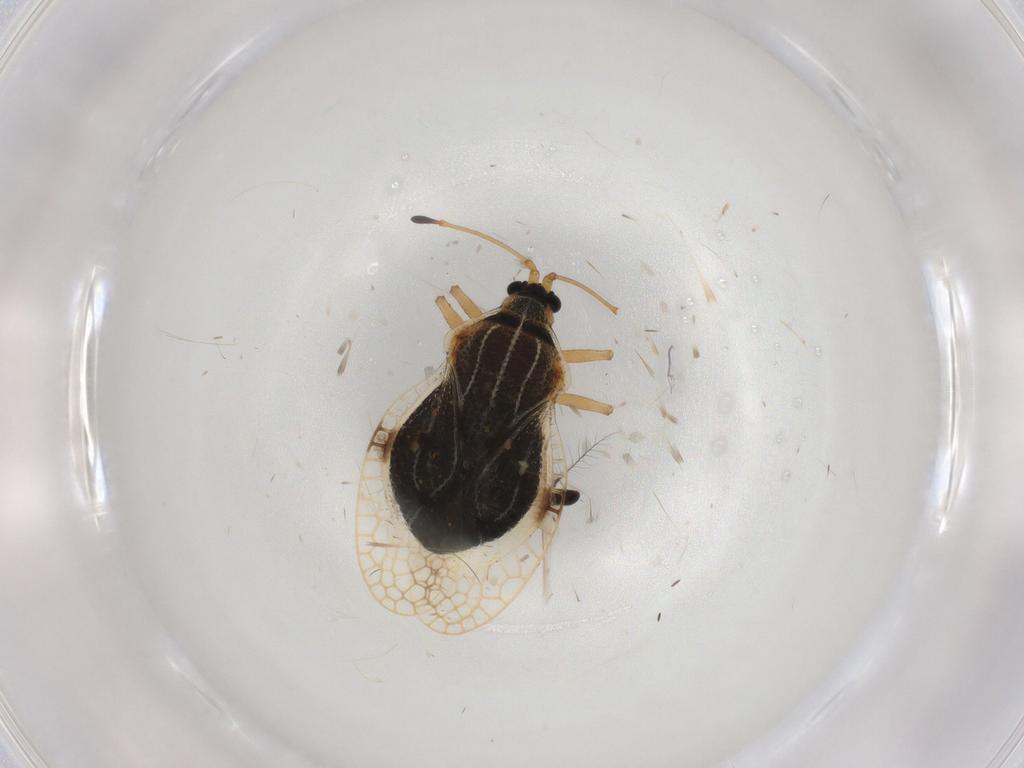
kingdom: Animalia
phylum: Arthropoda
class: Insecta
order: Hemiptera
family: Tingidae
